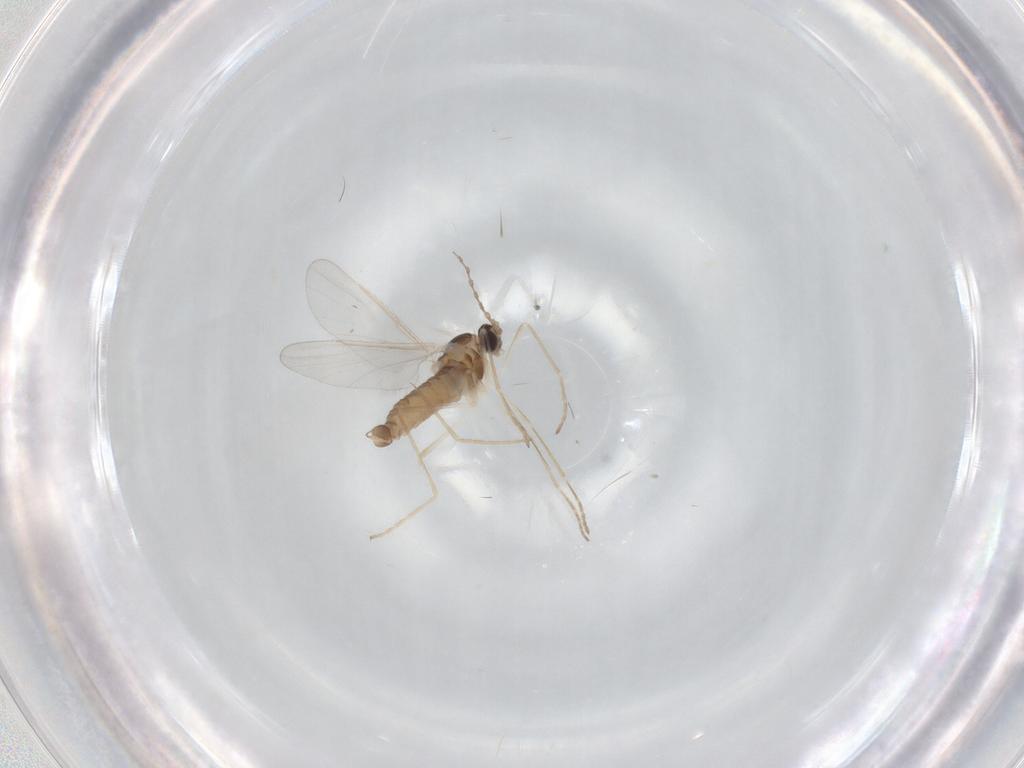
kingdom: Animalia
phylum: Arthropoda
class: Insecta
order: Diptera
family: Cecidomyiidae
